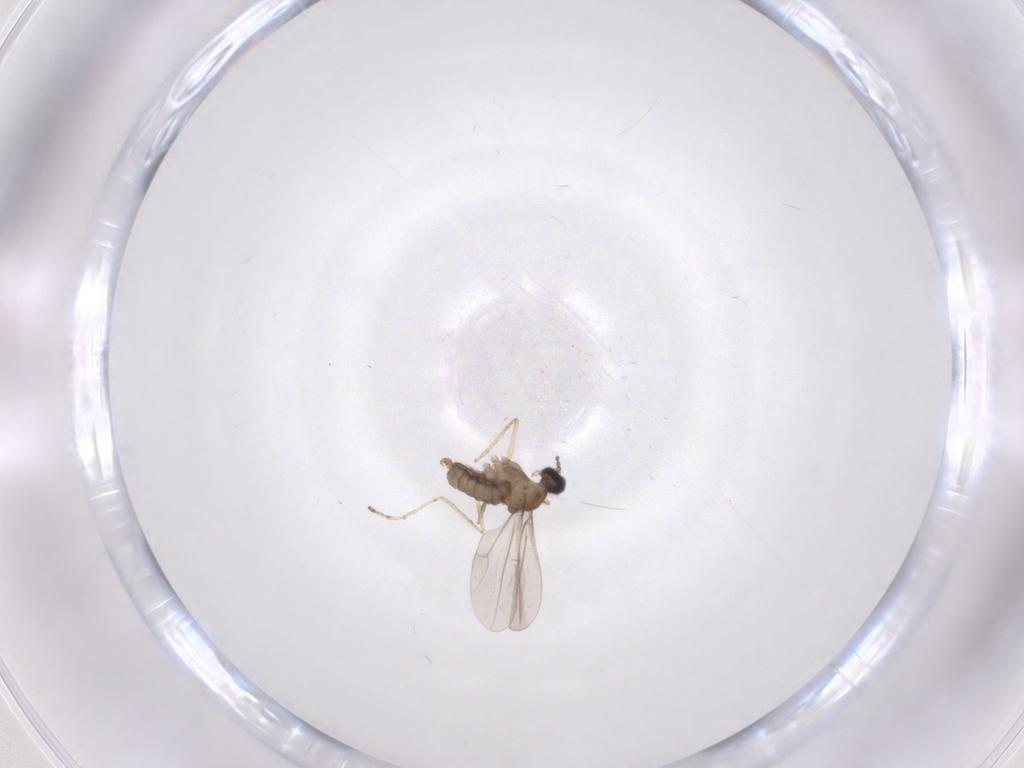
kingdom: Animalia
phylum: Arthropoda
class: Insecta
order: Diptera
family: Cecidomyiidae
